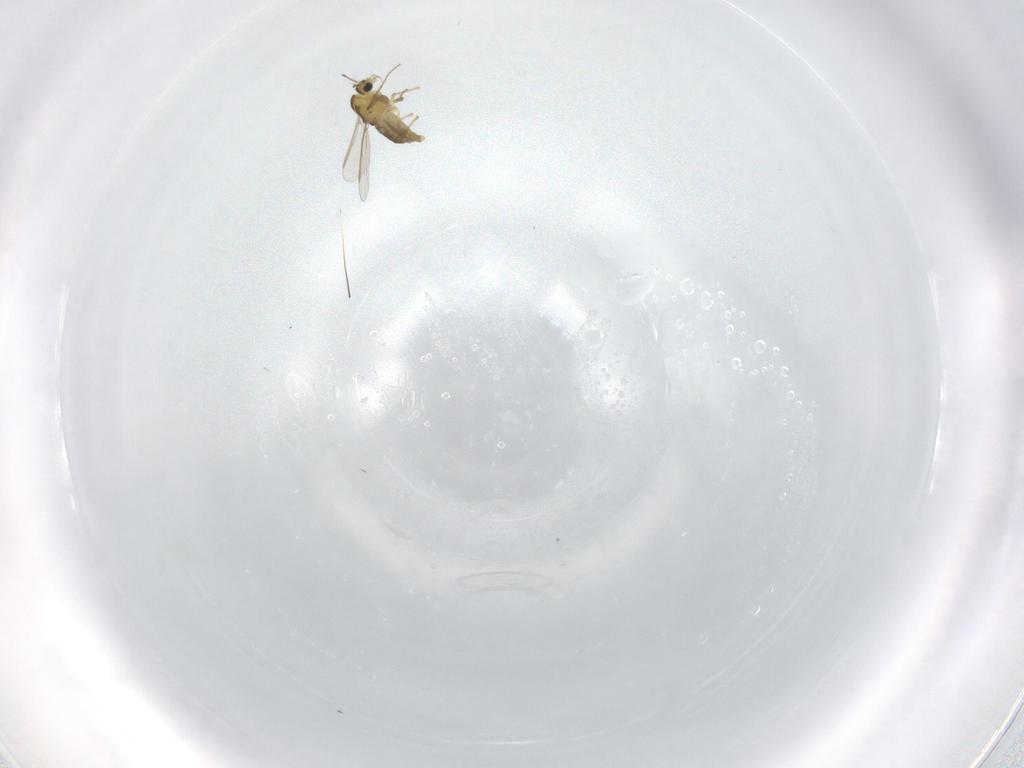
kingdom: Animalia
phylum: Arthropoda
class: Insecta
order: Diptera
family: Chironomidae
